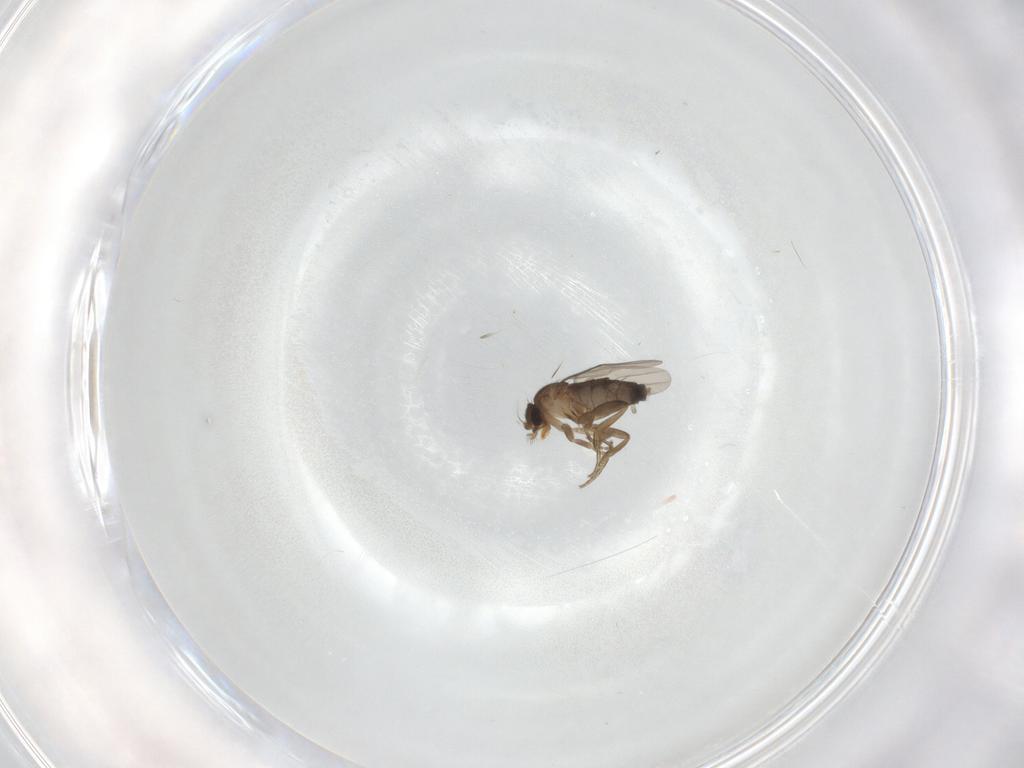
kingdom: Animalia
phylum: Arthropoda
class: Insecta
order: Diptera
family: Phoridae
